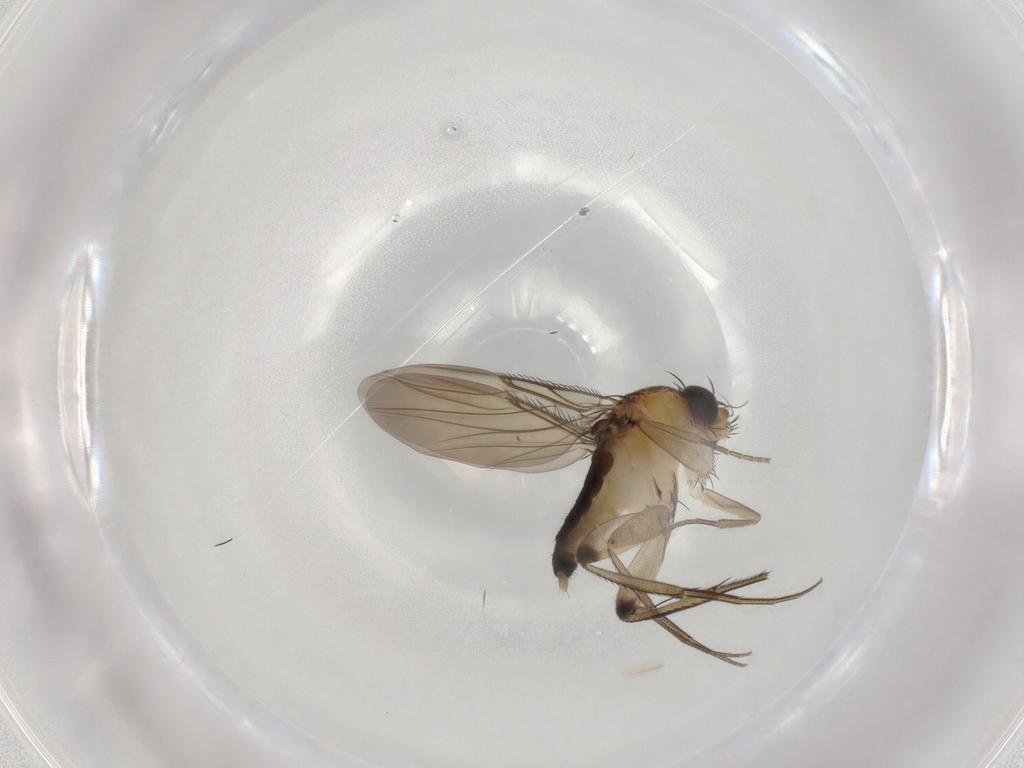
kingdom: Animalia
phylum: Arthropoda
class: Insecta
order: Diptera
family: Phoridae
